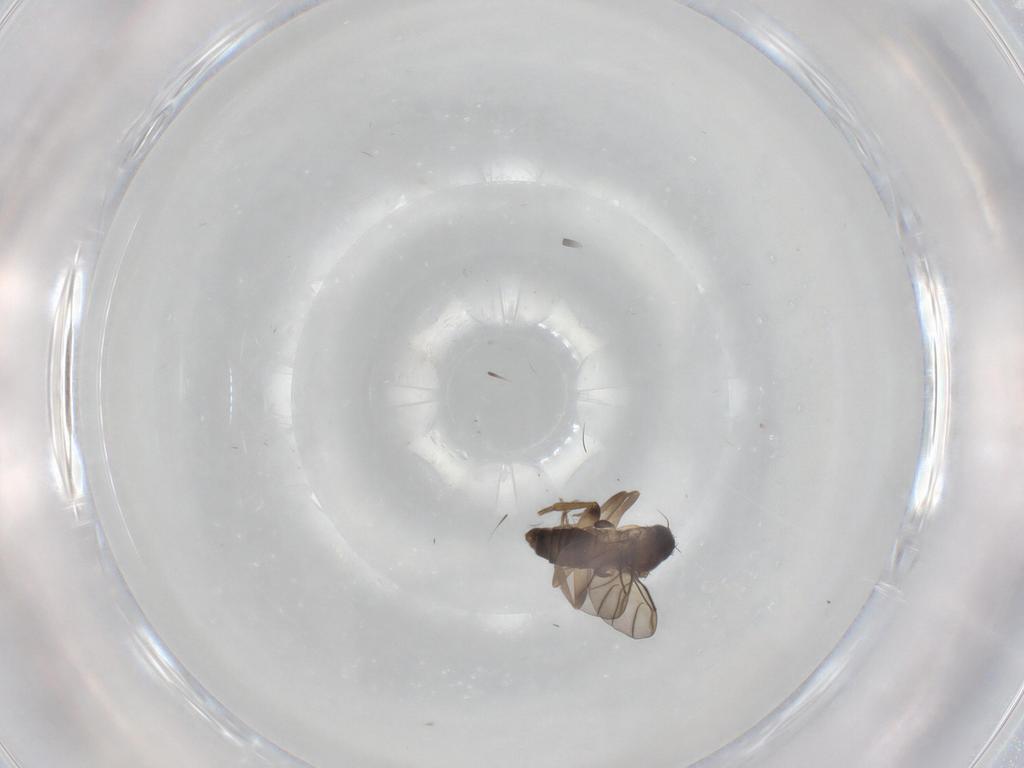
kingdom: Animalia
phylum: Arthropoda
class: Insecta
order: Diptera
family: Phoridae
